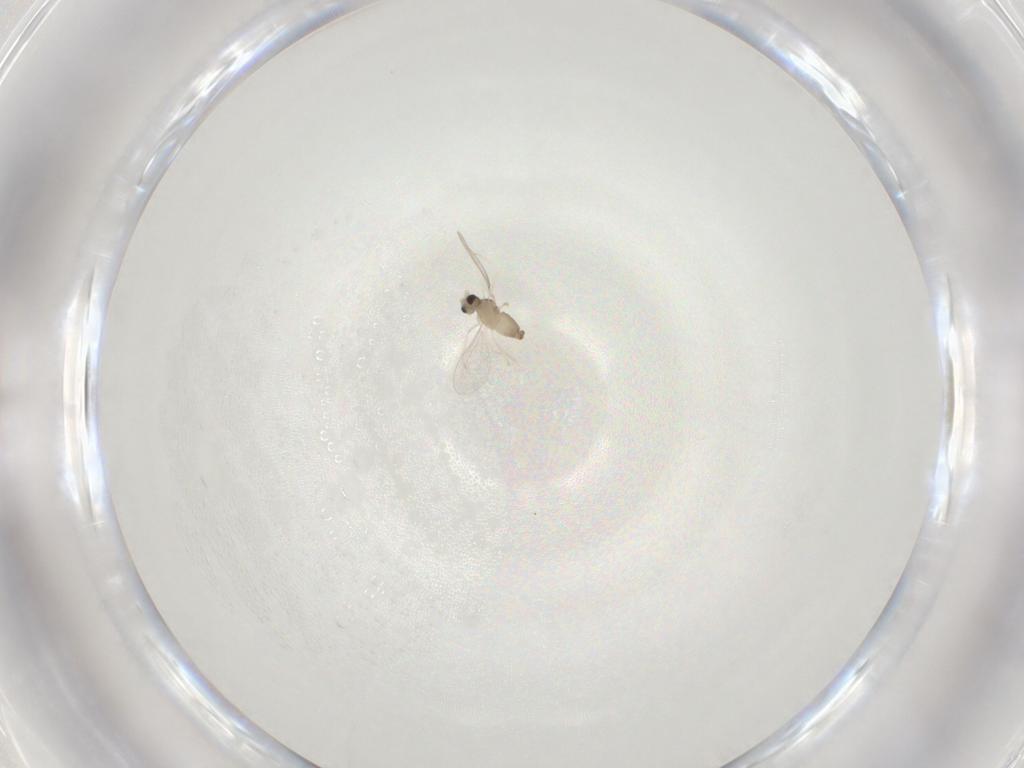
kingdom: Animalia
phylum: Arthropoda
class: Insecta
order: Diptera
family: Cecidomyiidae
